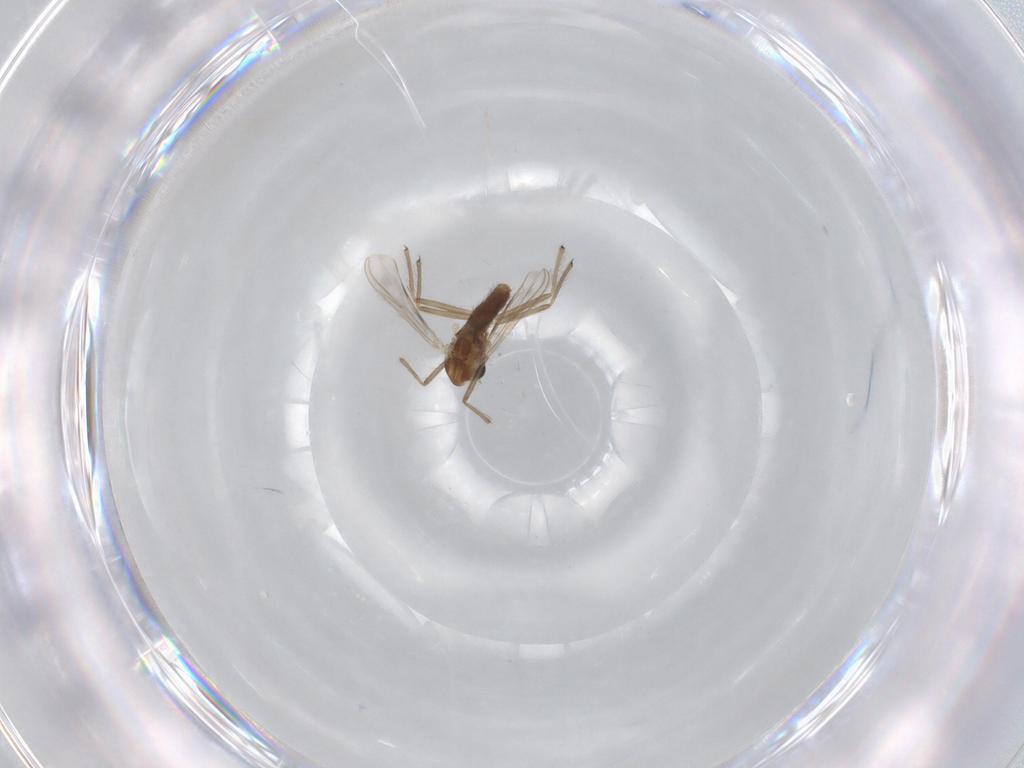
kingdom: Animalia
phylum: Arthropoda
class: Insecta
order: Diptera
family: Chironomidae
